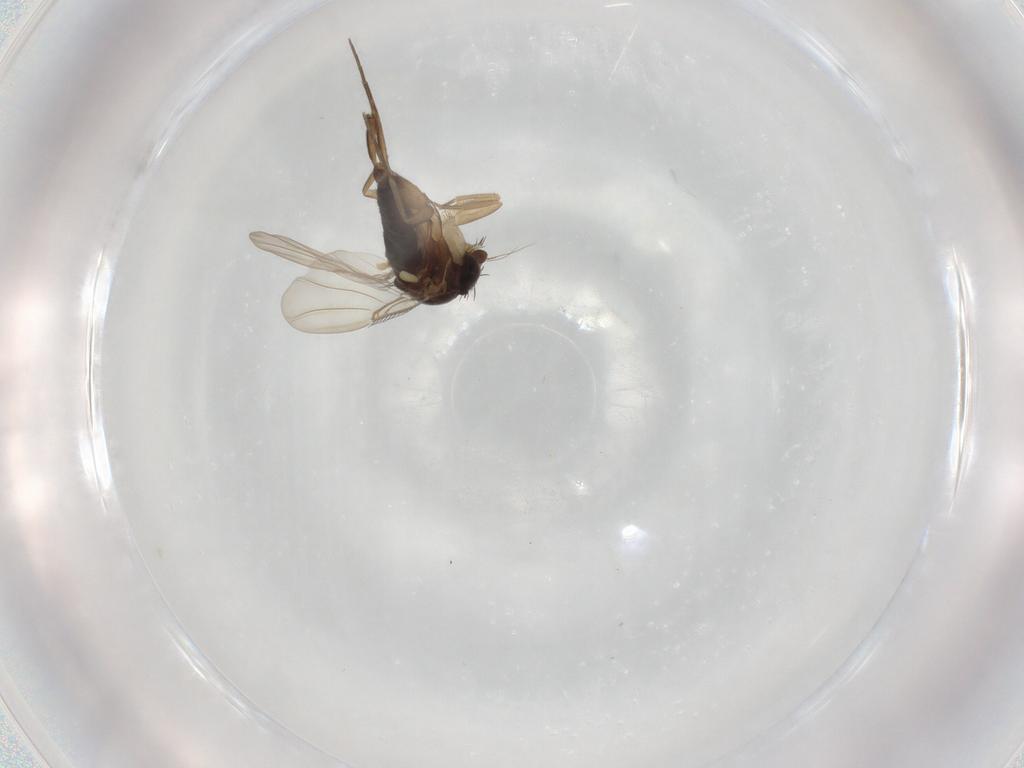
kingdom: Animalia
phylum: Arthropoda
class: Insecta
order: Diptera
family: Phoridae
